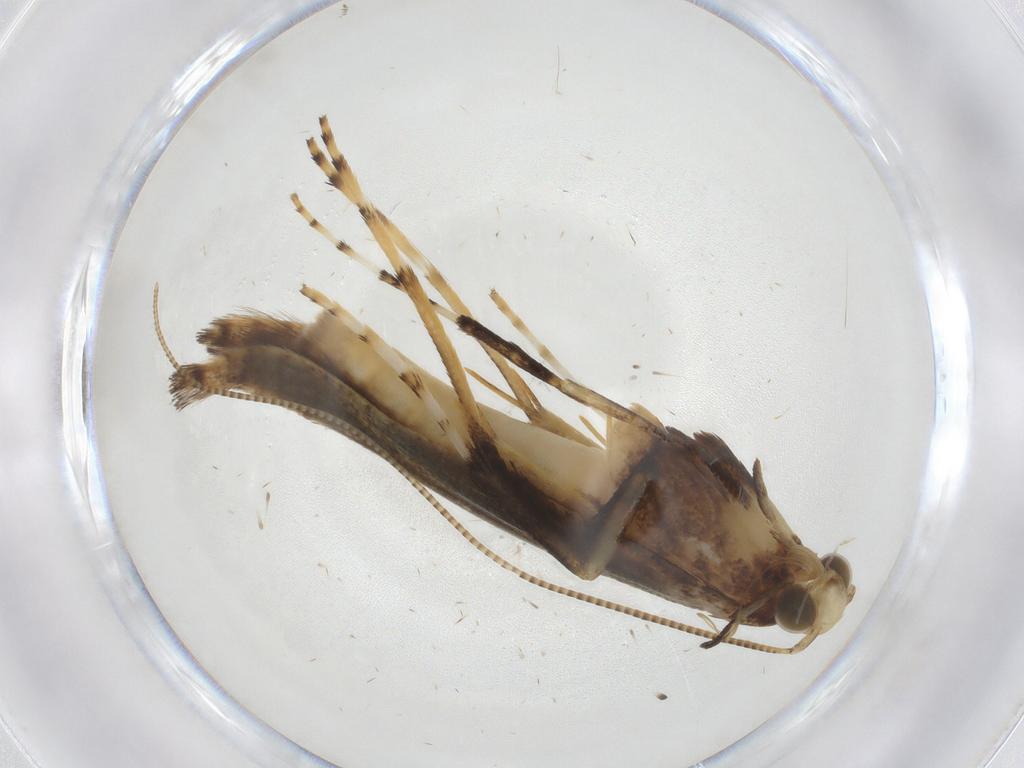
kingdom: Animalia
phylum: Arthropoda
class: Insecta
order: Lepidoptera
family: Gracillariidae
